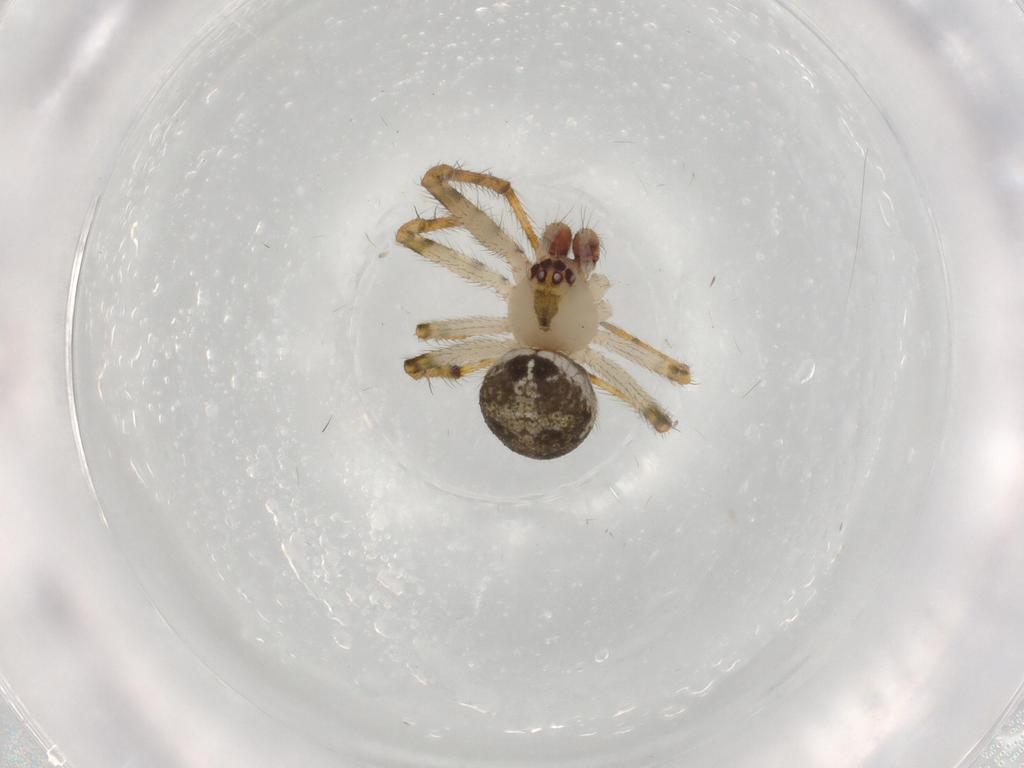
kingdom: Animalia
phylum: Arthropoda
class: Arachnida
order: Araneae
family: Theridiidae
